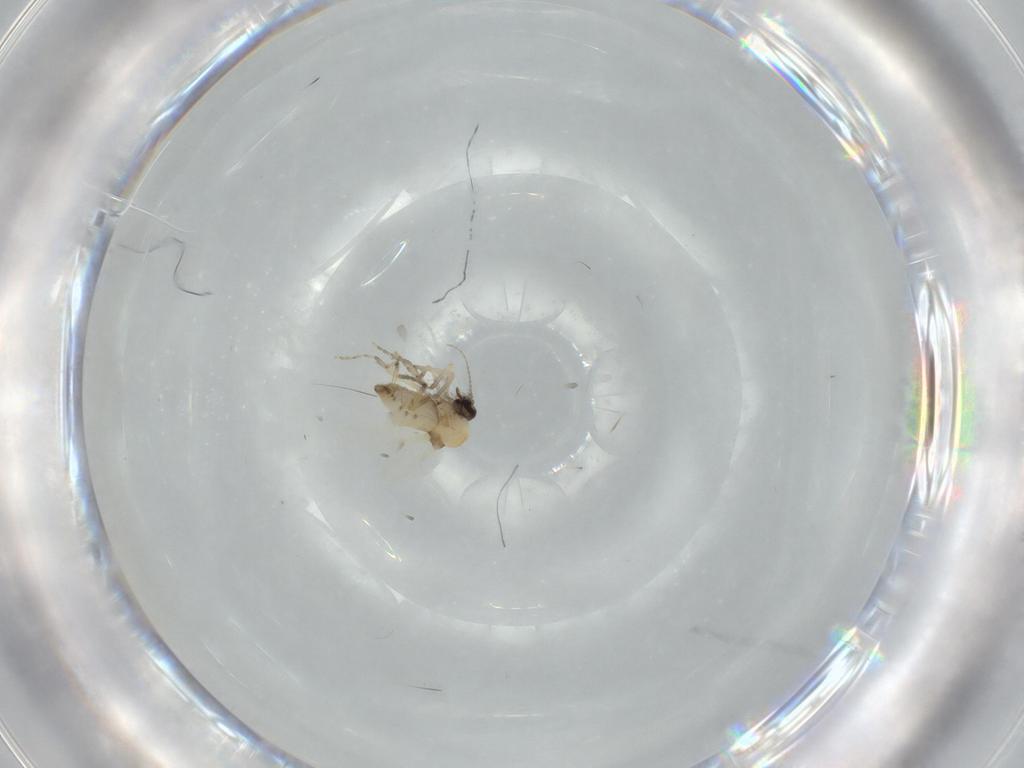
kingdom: Animalia
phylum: Arthropoda
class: Insecta
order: Diptera
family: Ceratopogonidae
